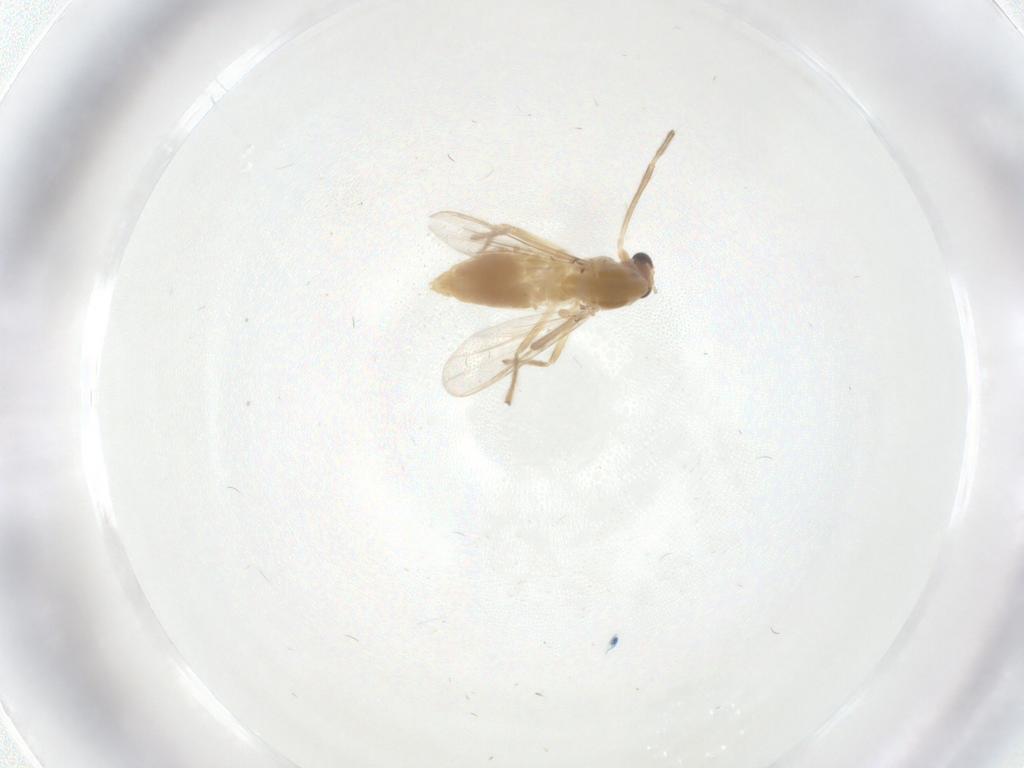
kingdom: Animalia
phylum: Arthropoda
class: Insecta
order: Diptera
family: Chironomidae
